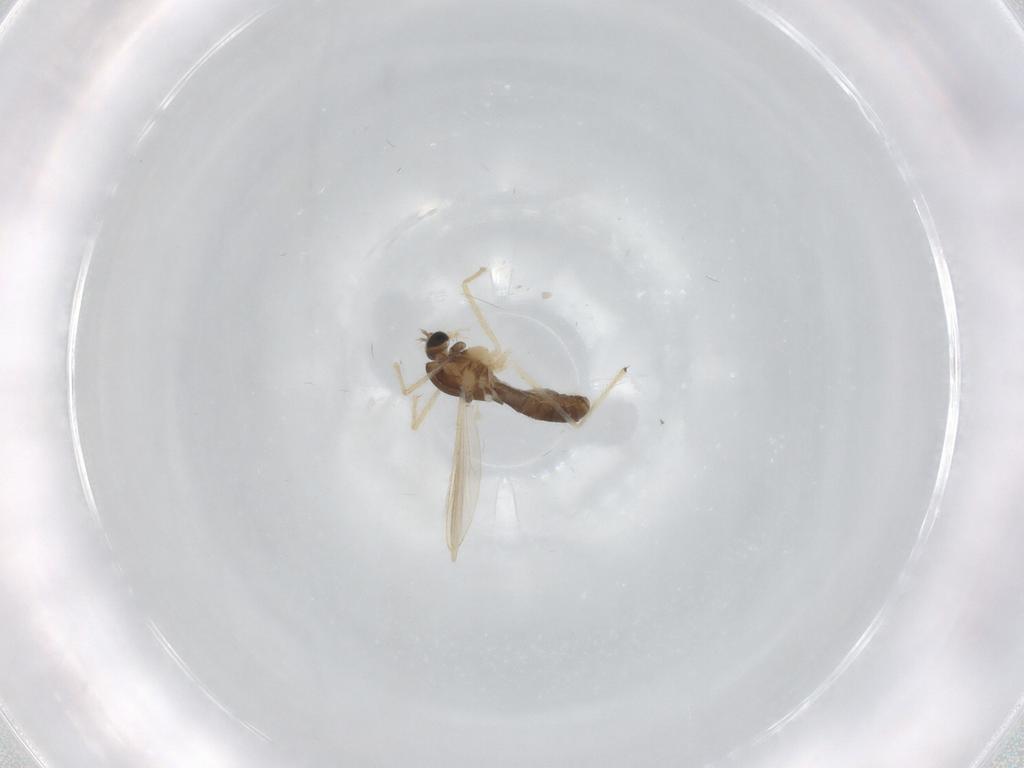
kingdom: Animalia
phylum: Arthropoda
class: Insecta
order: Diptera
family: Chironomidae
